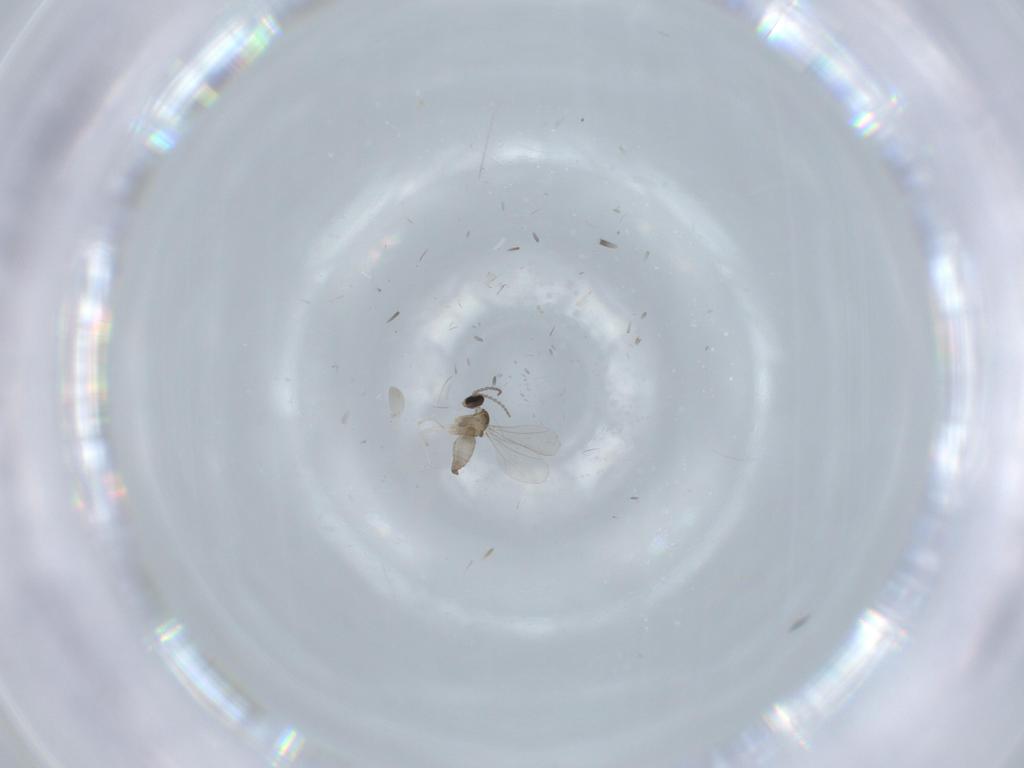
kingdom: Animalia
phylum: Arthropoda
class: Insecta
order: Diptera
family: Cecidomyiidae
